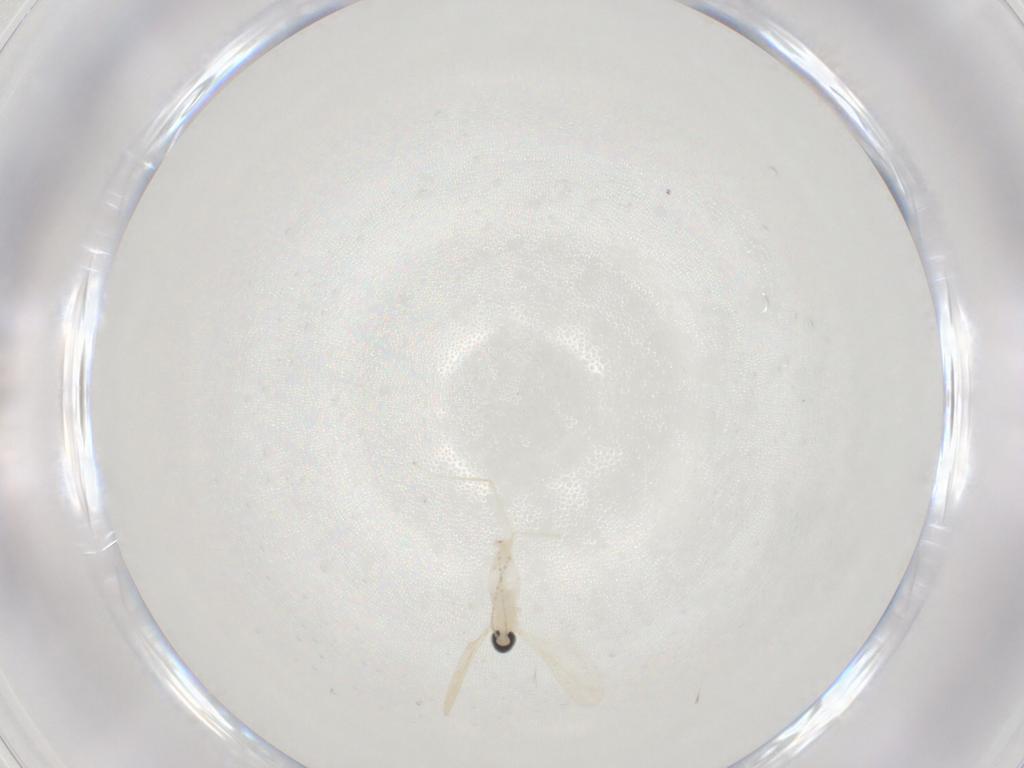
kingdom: Animalia
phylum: Arthropoda
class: Insecta
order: Diptera
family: Cecidomyiidae
